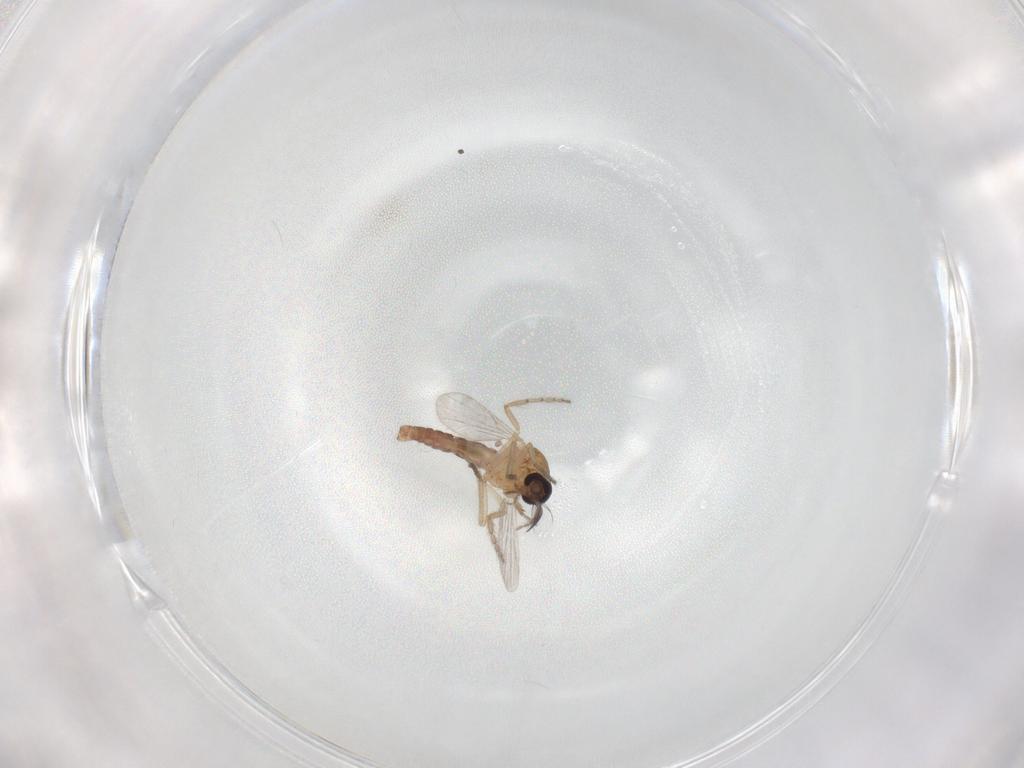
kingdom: Animalia
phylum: Arthropoda
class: Insecta
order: Diptera
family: Ceratopogonidae
